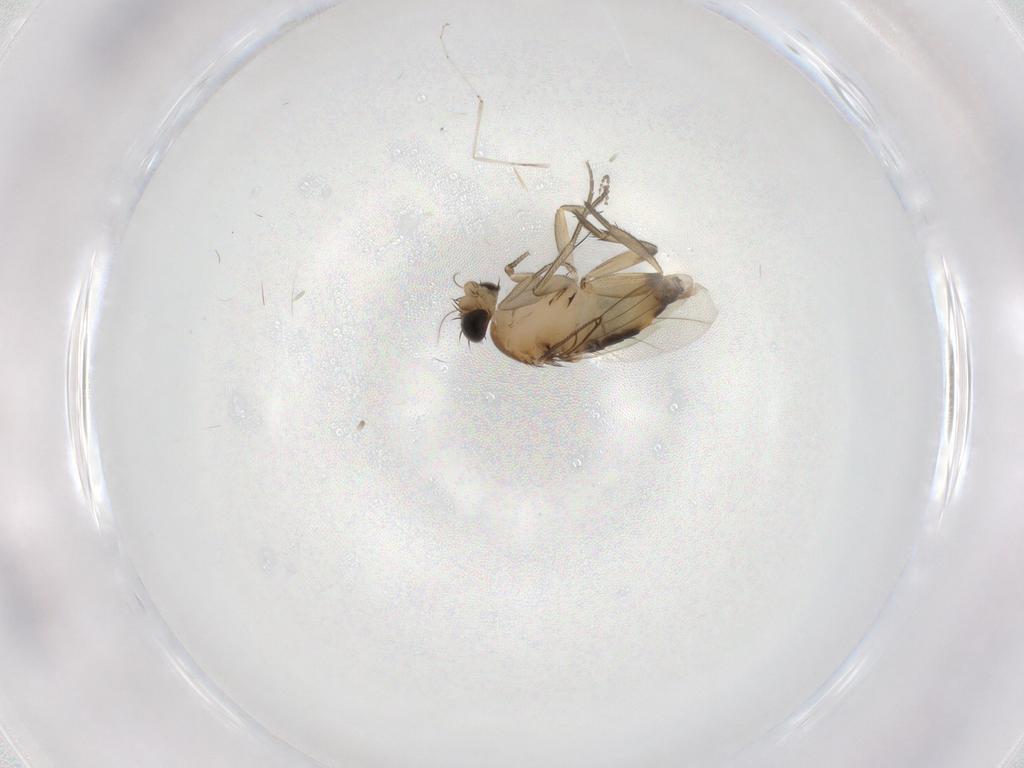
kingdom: Animalia
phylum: Arthropoda
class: Insecta
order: Diptera
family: Phoridae
